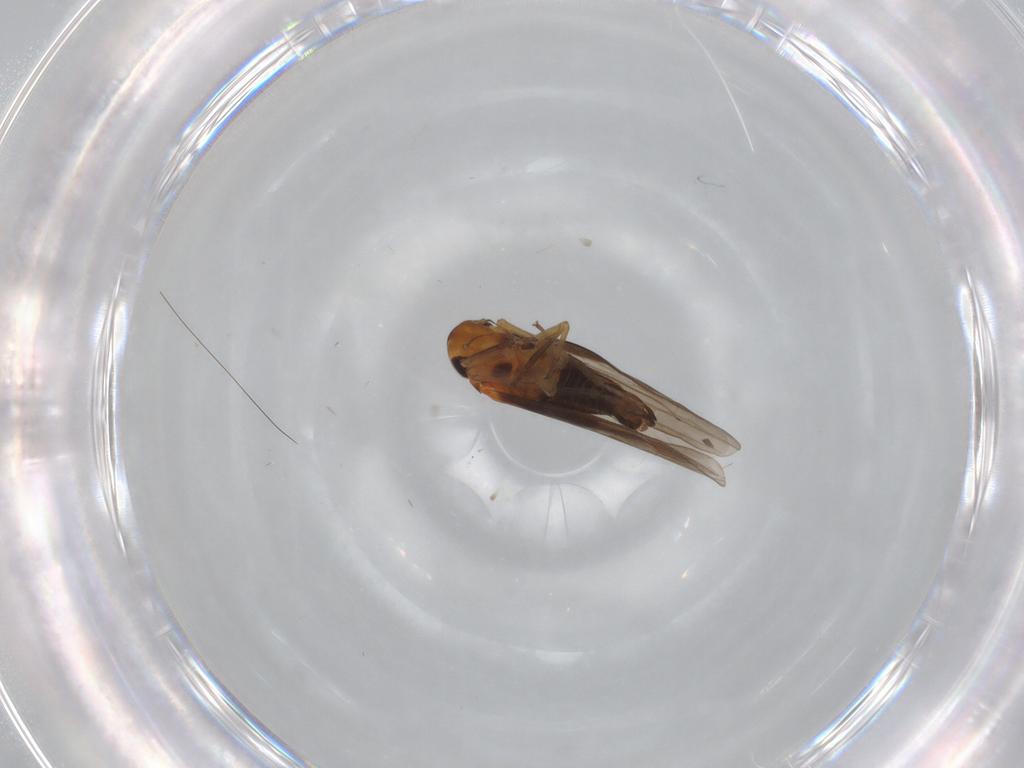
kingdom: Animalia
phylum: Arthropoda
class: Insecta
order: Hemiptera
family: Cicadellidae
